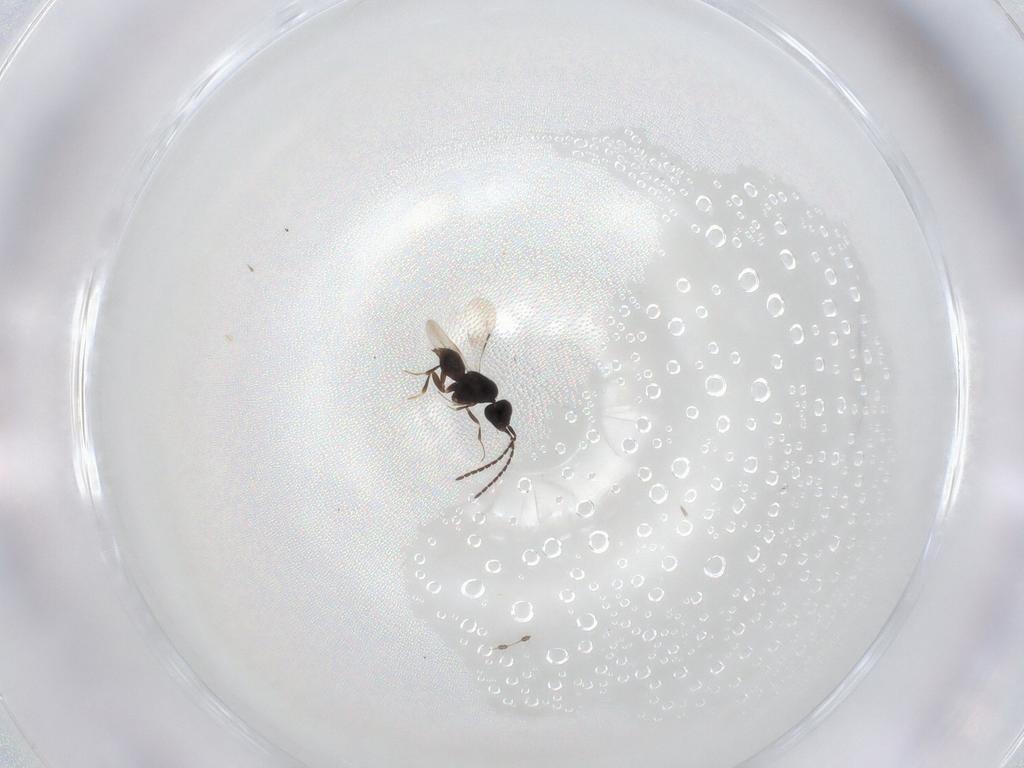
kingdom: Animalia
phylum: Arthropoda
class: Insecta
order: Hymenoptera
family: Ceraphronidae
